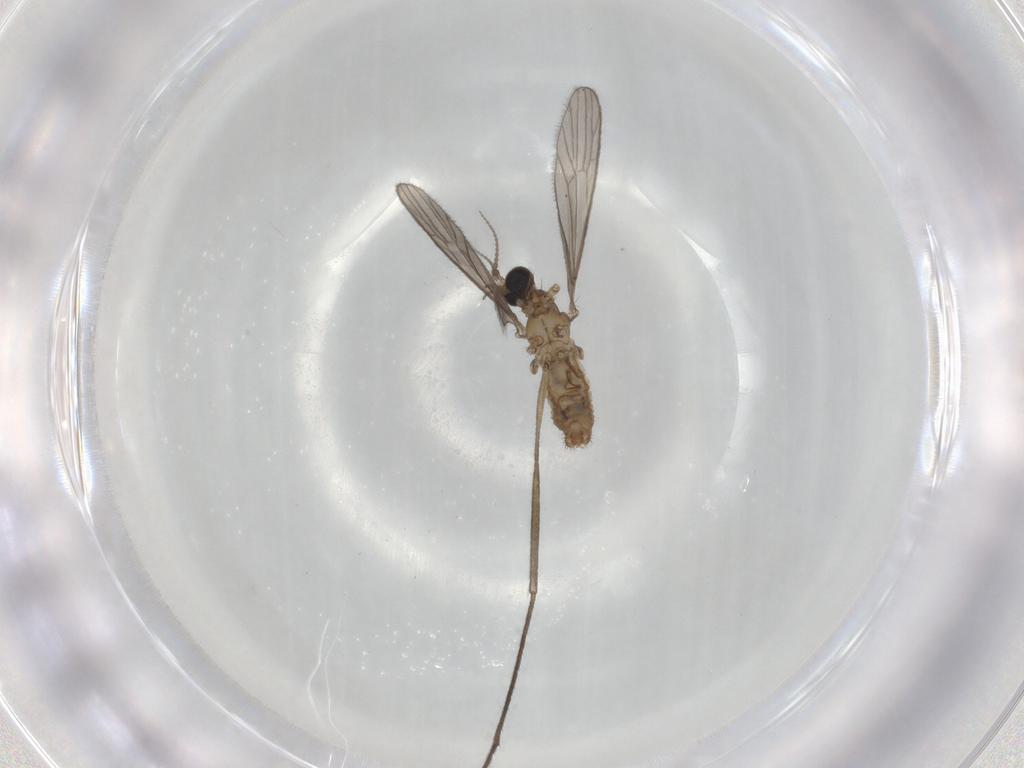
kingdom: Animalia
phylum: Arthropoda
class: Insecta
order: Diptera
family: Limoniidae
